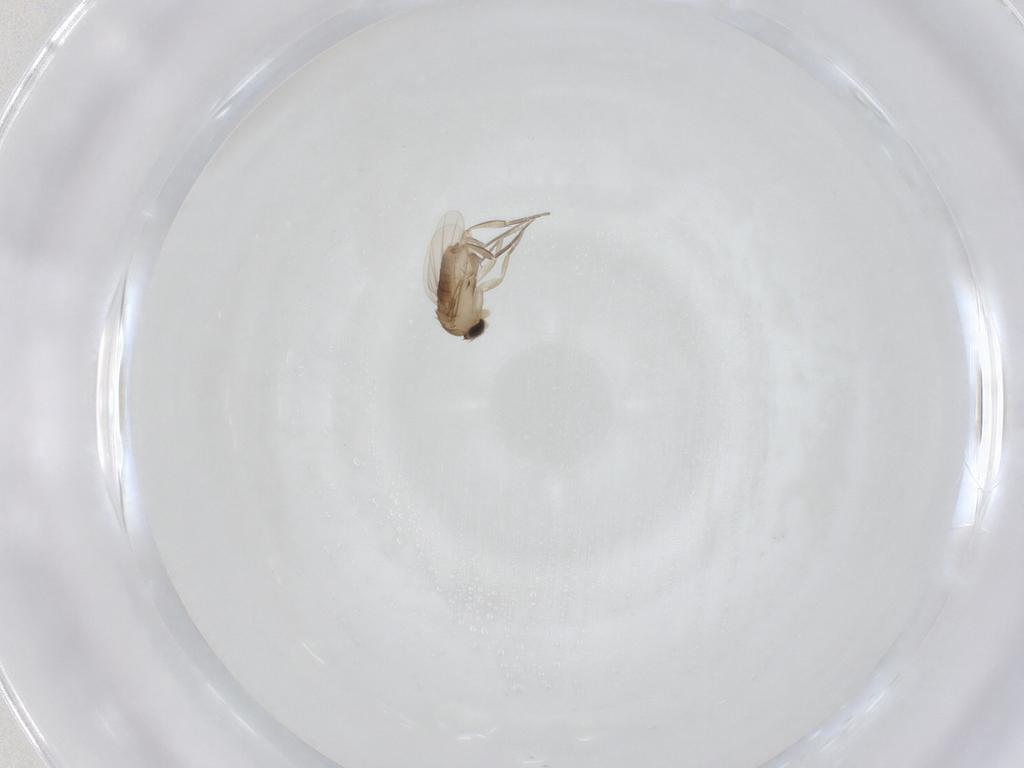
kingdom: Animalia
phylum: Arthropoda
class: Insecta
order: Diptera
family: Phoridae
